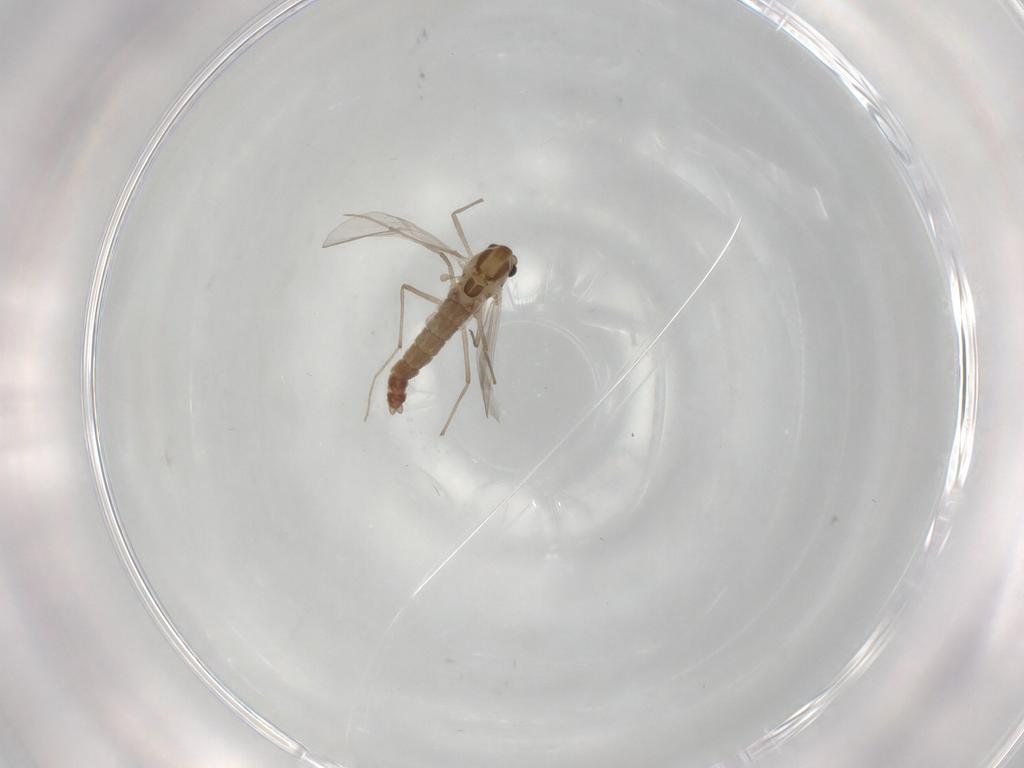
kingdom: Animalia
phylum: Arthropoda
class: Insecta
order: Diptera
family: Chironomidae
